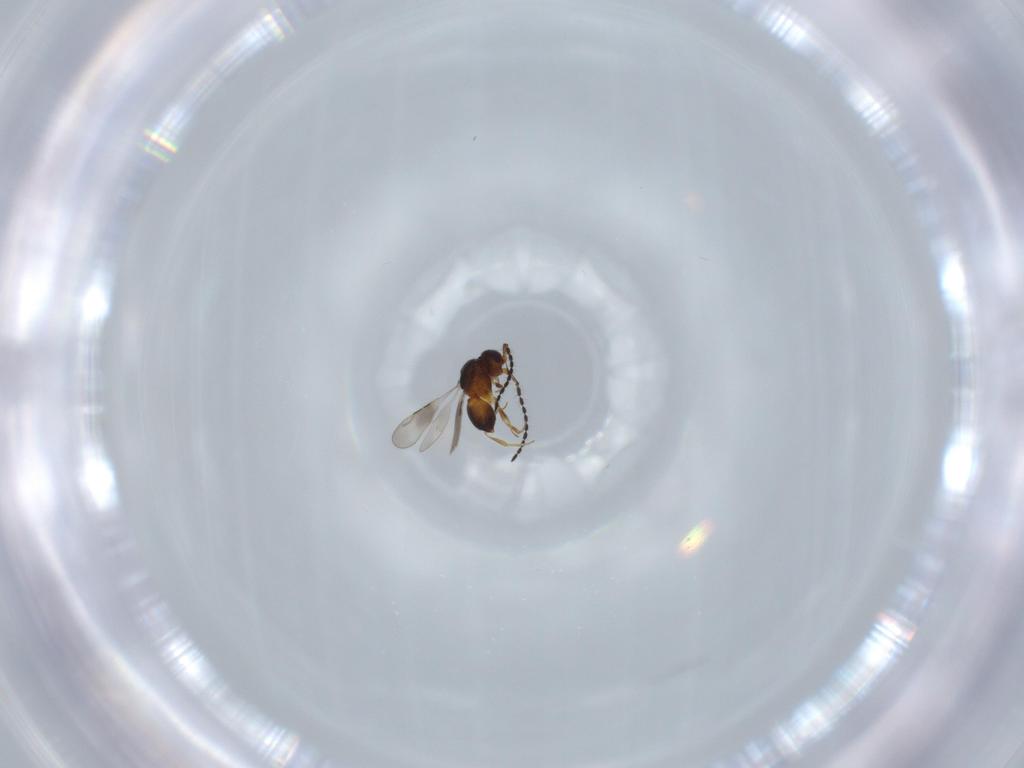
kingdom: Animalia
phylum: Arthropoda
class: Insecta
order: Hymenoptera
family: Ceraphronidae
